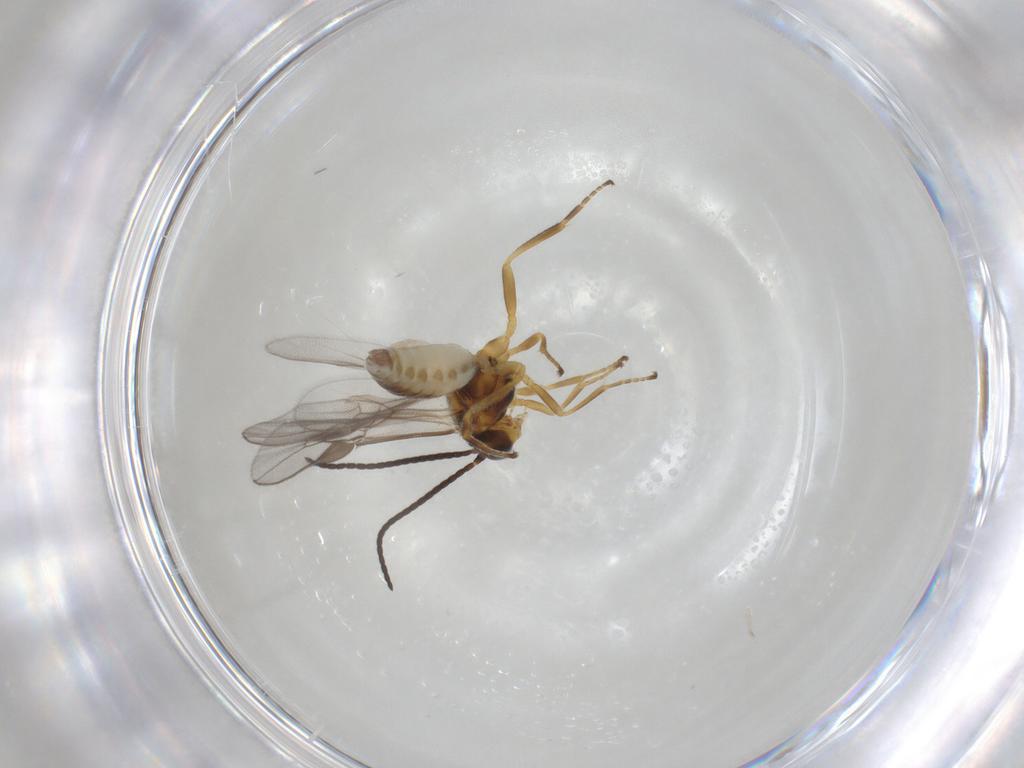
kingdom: Animalia
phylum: Arthropoda
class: Insecta
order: Hymenoptera
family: Braconidae
